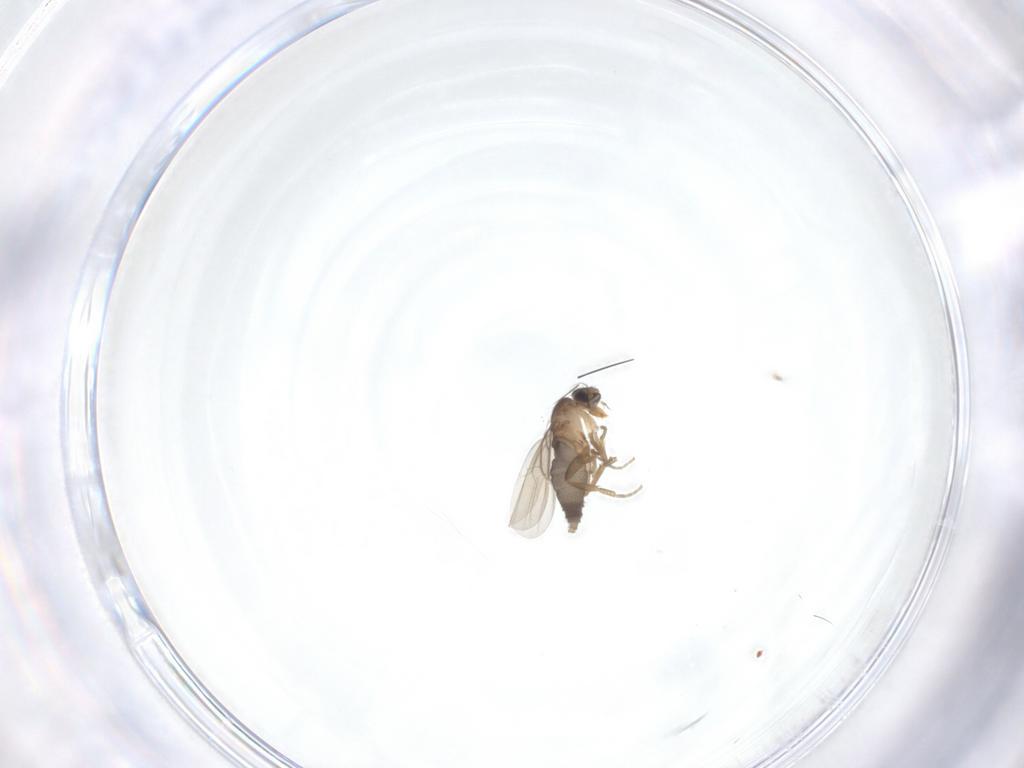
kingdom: Animalia
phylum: Arthropoda
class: Insecta
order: Diptera
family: Phoridae
